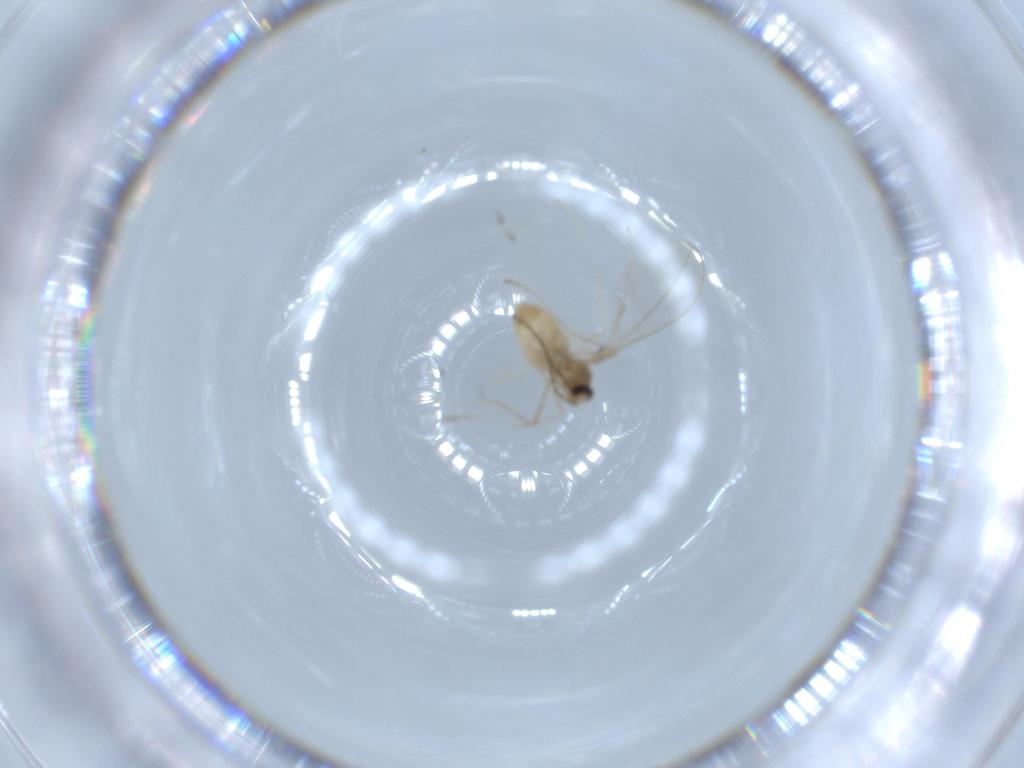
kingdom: Animalia
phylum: Arthropoda
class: Insecta
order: Diptera
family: Cecidomyiidae
